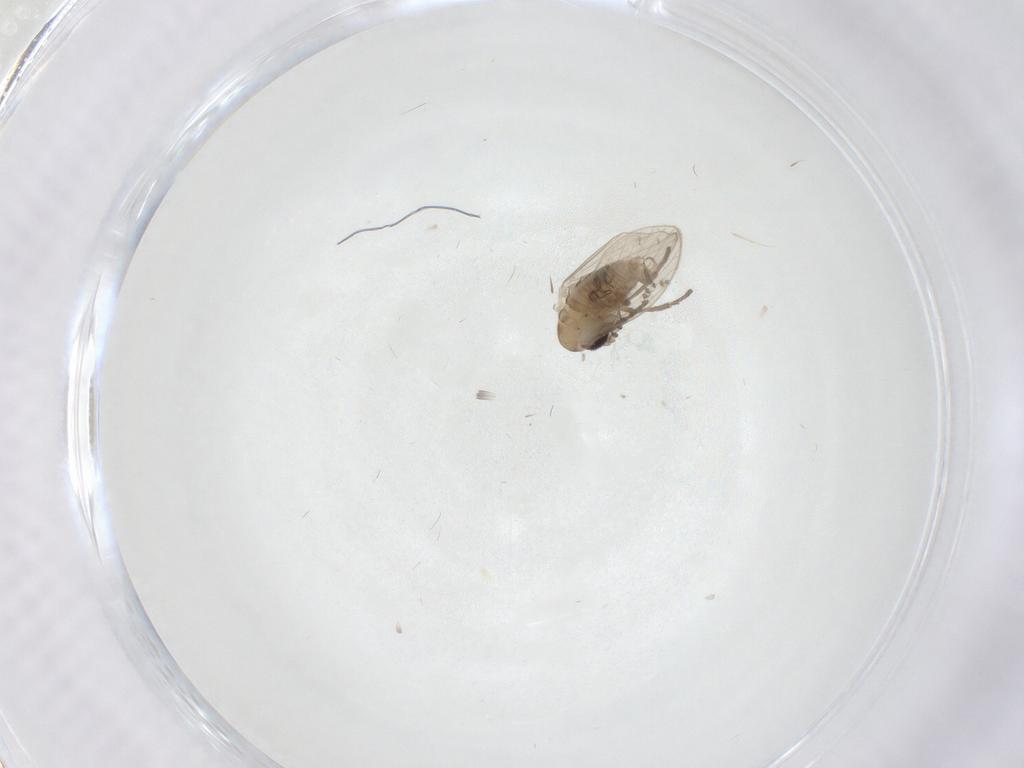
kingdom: Animalia
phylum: Arthropoda
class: Insecta
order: Diptera
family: Psychodidae
